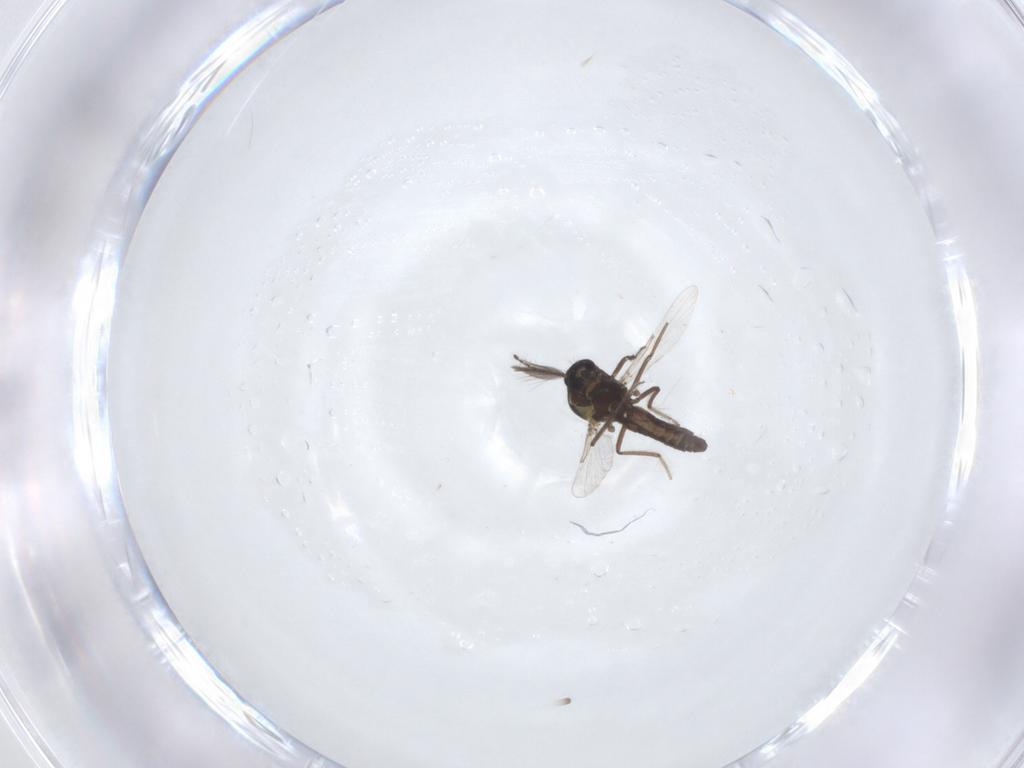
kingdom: Animalia
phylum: Arthropoda
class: Insecta
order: Diptera
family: Ceratopogonidae
